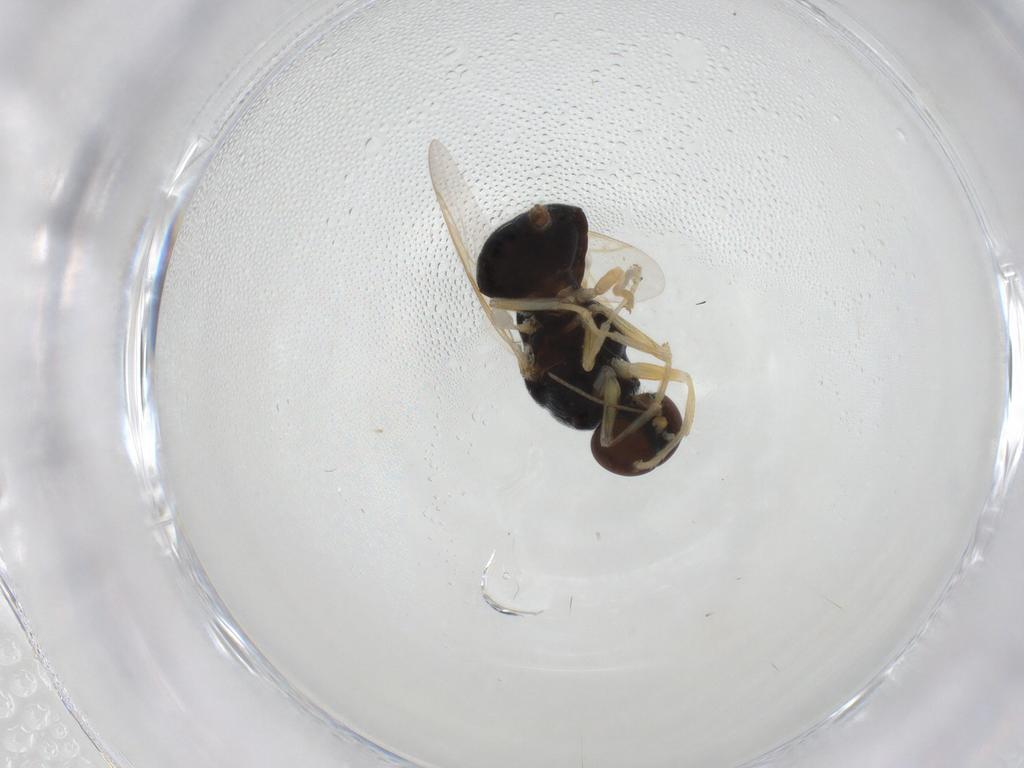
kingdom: Animalia
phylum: Arthropoda
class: Insecta
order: Diptera
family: Stratiomyidae
